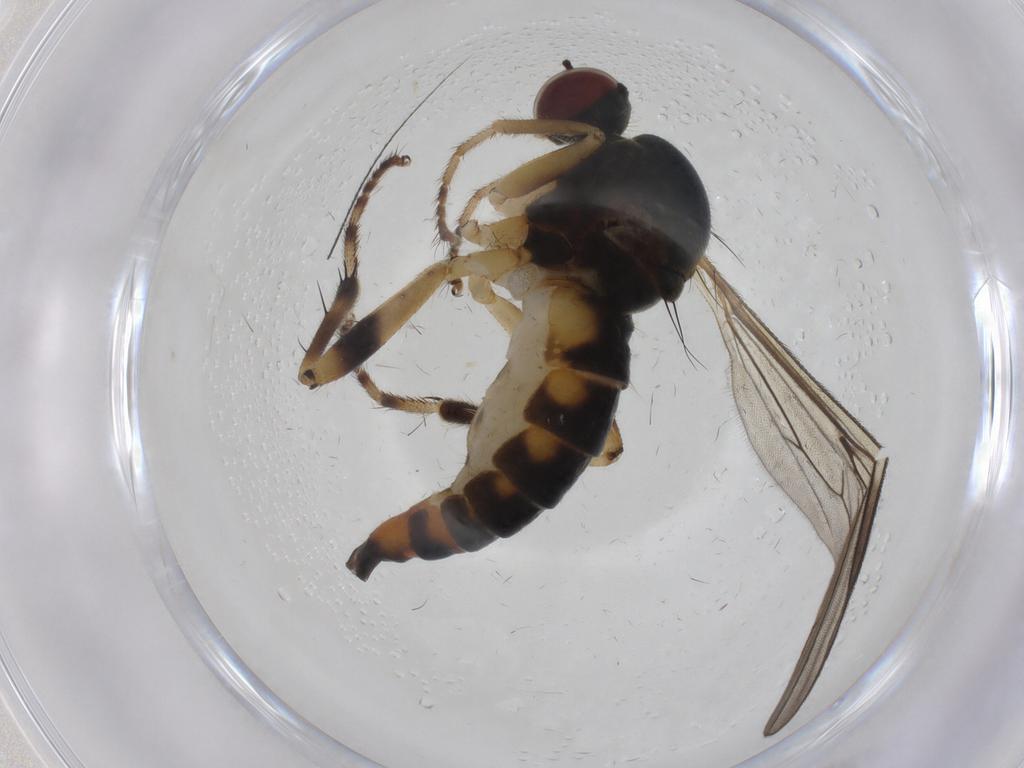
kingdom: Animalia
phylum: Arthropoda
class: Insecta
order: Diptera
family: Hybotidae
